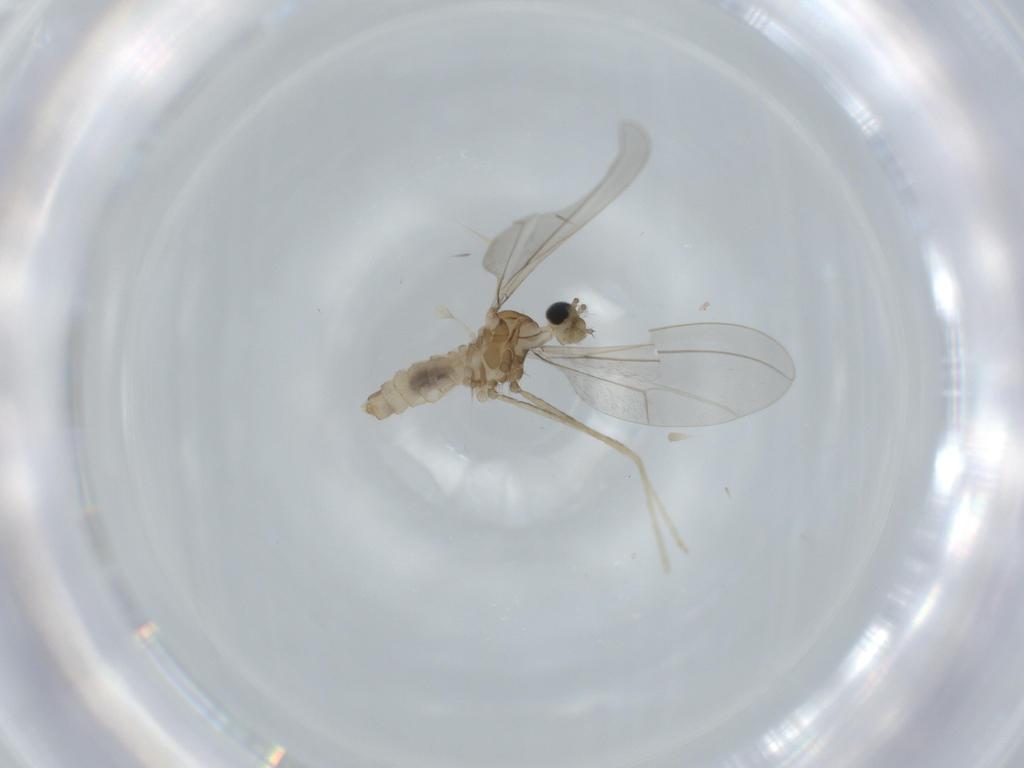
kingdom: Animalia
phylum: Arthropoda
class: Insecta
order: Diptera
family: Cecidomyiidae
